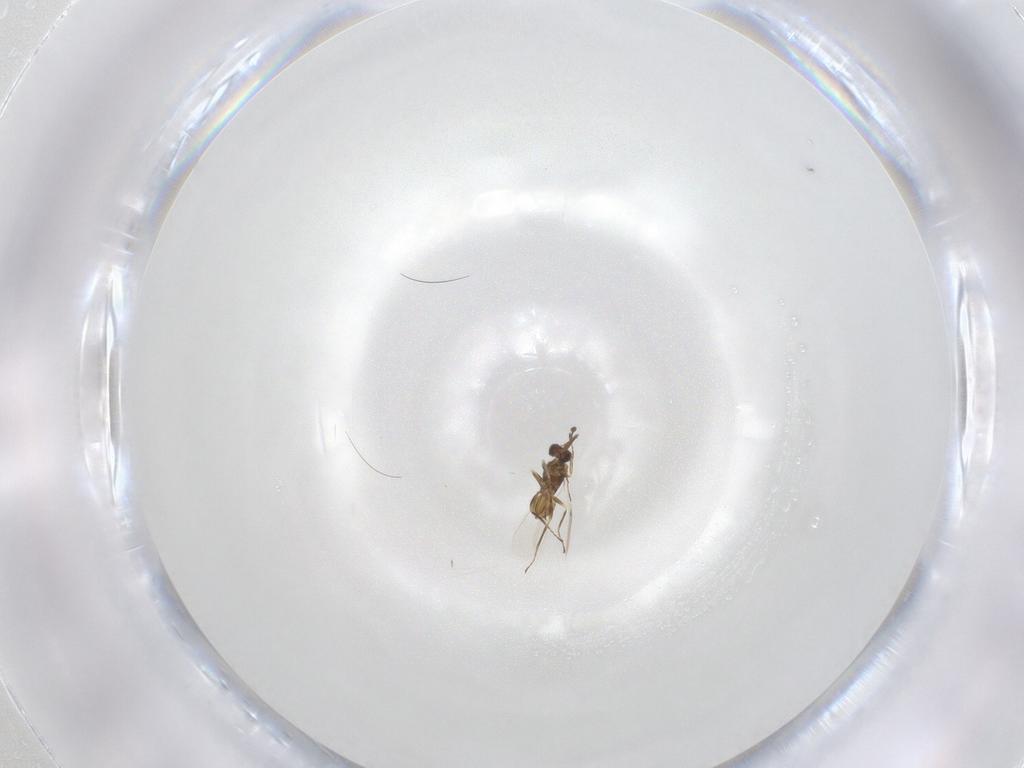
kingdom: Animalia
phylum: Arthropoda
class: Insecta
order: Hymenoptera
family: Mymaridae
